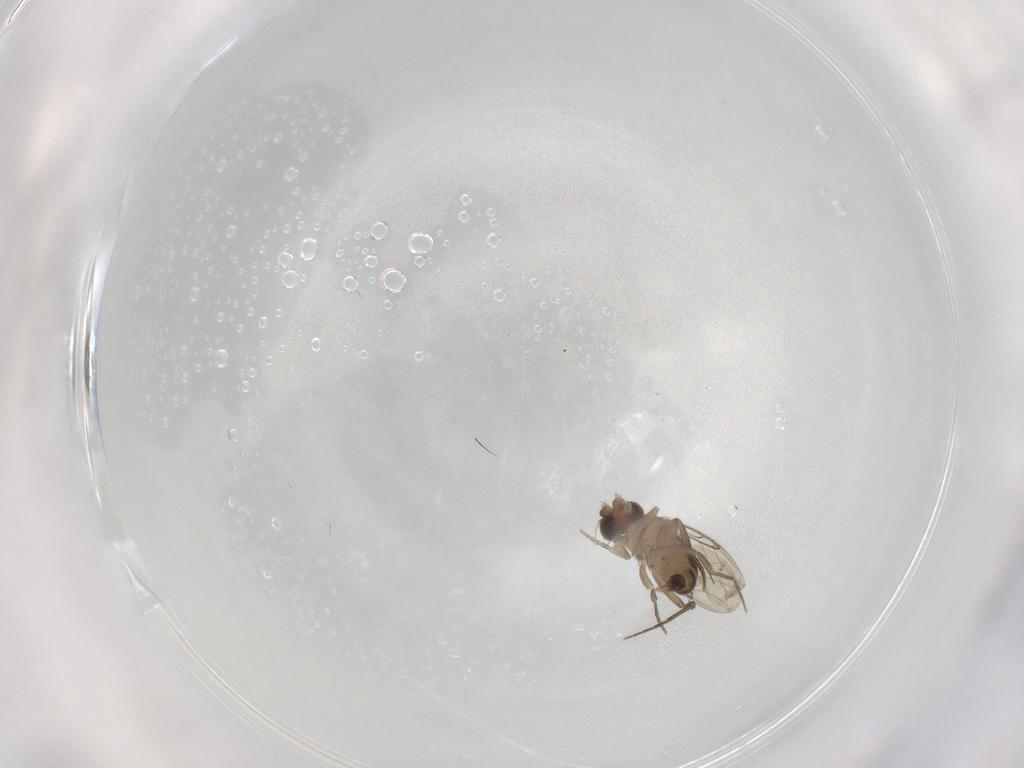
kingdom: Animalia
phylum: Arthropoda
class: Insecta
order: Diptera
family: Phoridae
